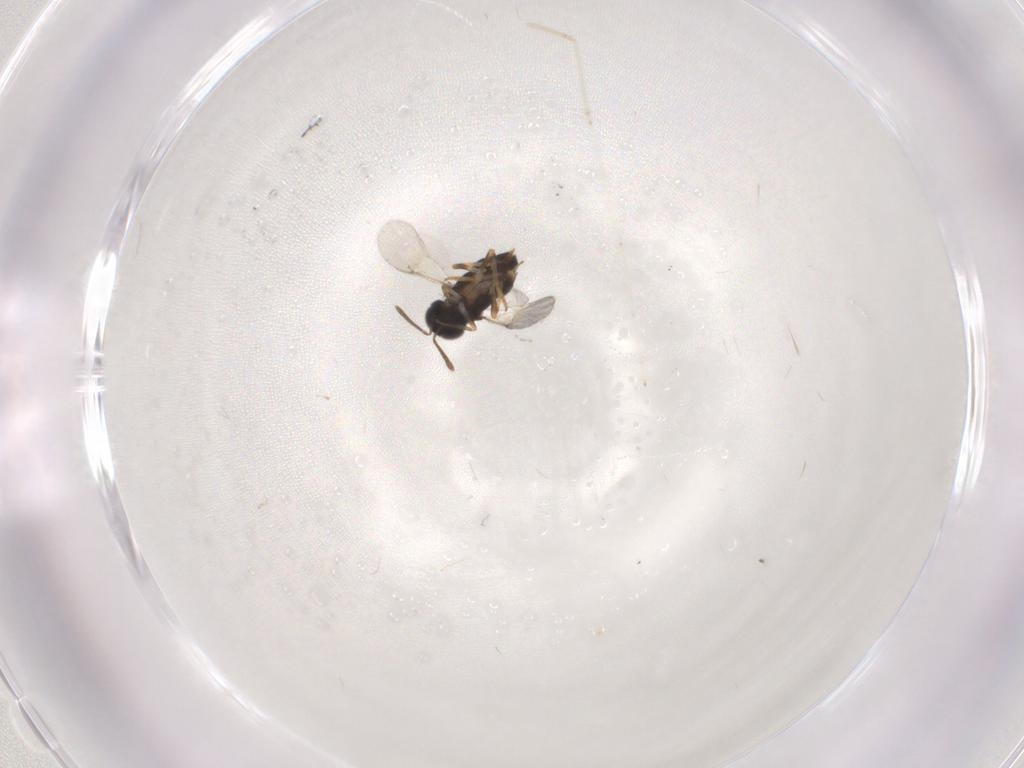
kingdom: Animalia
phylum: Arthropoda
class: Insecta
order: Hymenoptera
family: Encyrtidae
